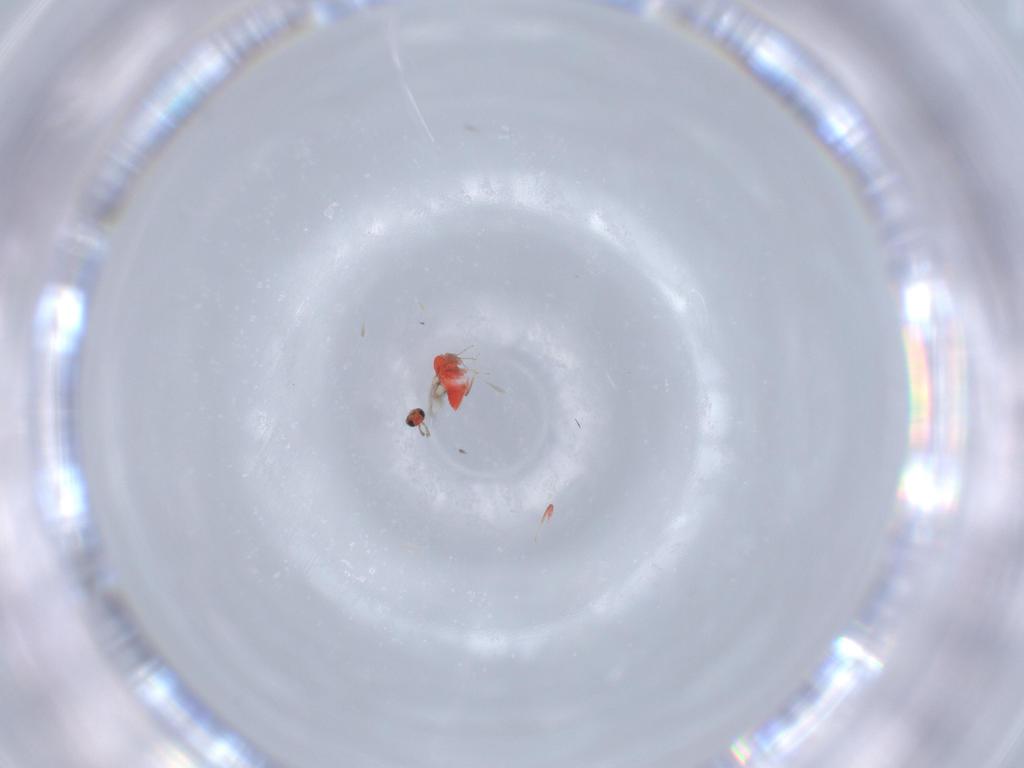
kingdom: Animalia
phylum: Arthropoda
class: Insecta
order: Hymenoptera
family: Trichogrammatidae
